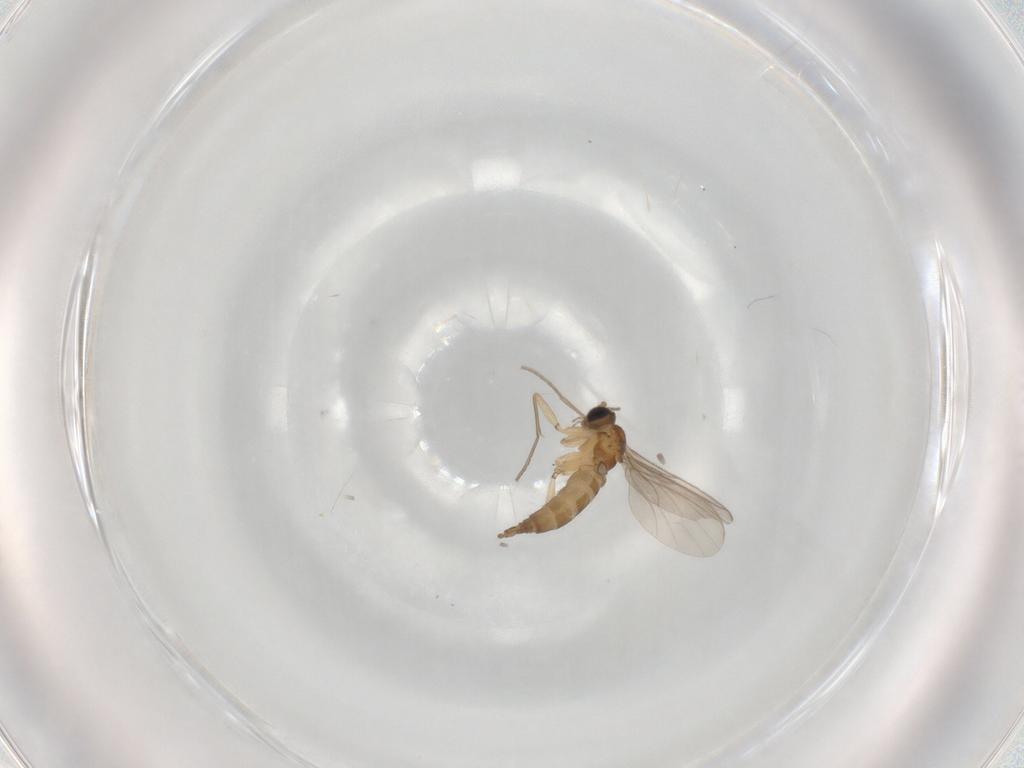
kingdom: Animalia
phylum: Arthropoda
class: Insecta
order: Diptera
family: Sciaridae
